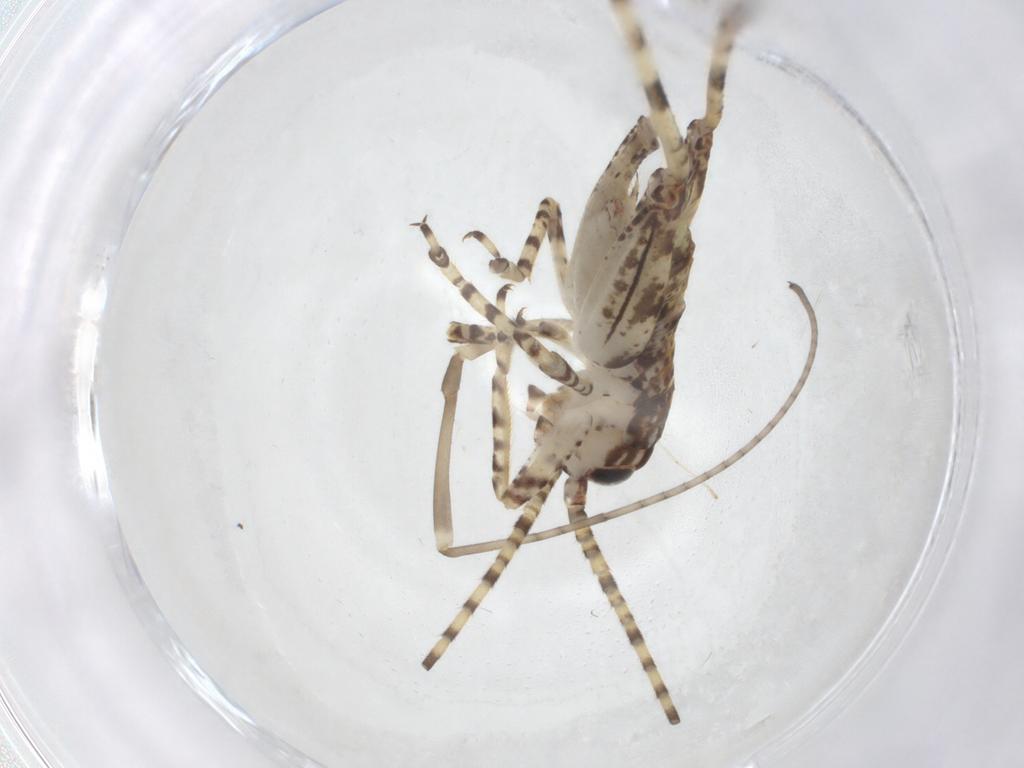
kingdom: Animalia
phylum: Arthropoda
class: Insecta
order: Orthoptera
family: Gryllidae
